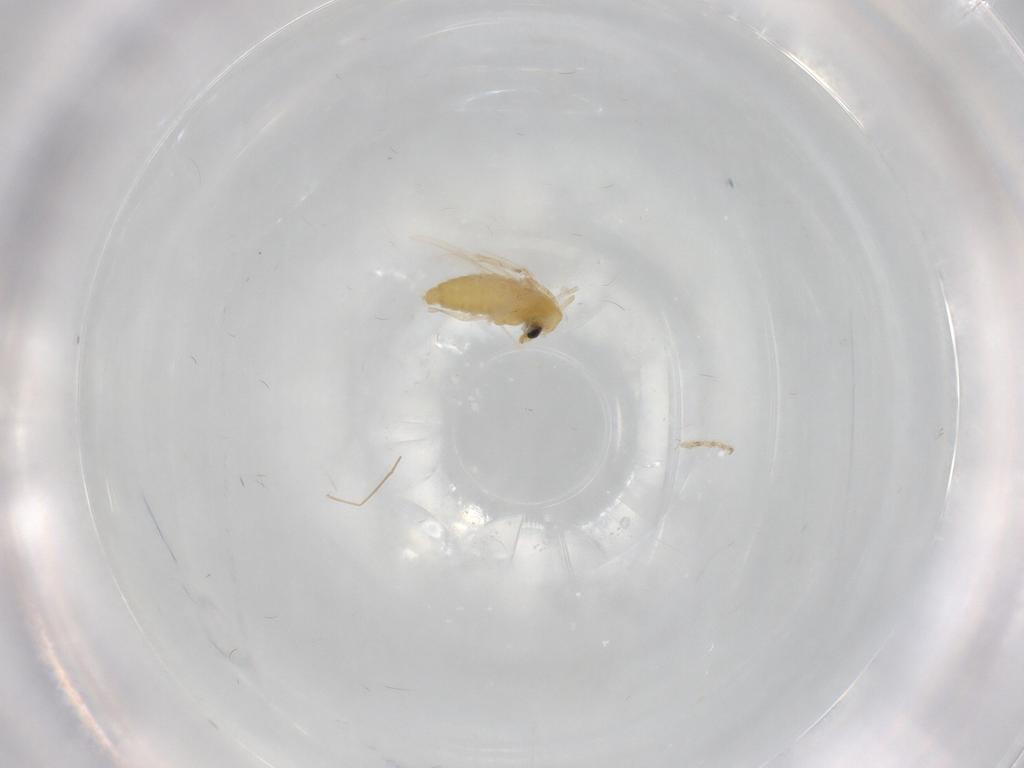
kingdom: Animalia
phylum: Arthropoda
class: Insecta
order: Diptera
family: Chironomidae
